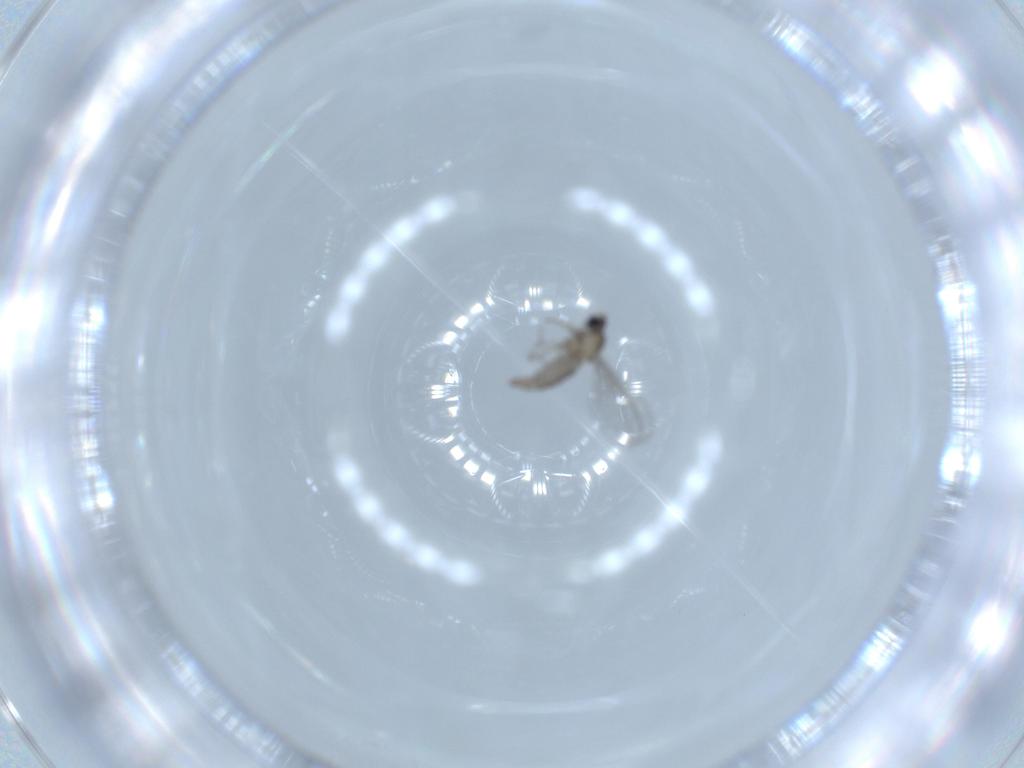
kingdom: Animalia
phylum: Arthropoda
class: Insecta
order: Diptera
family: Cecidomyiidae
